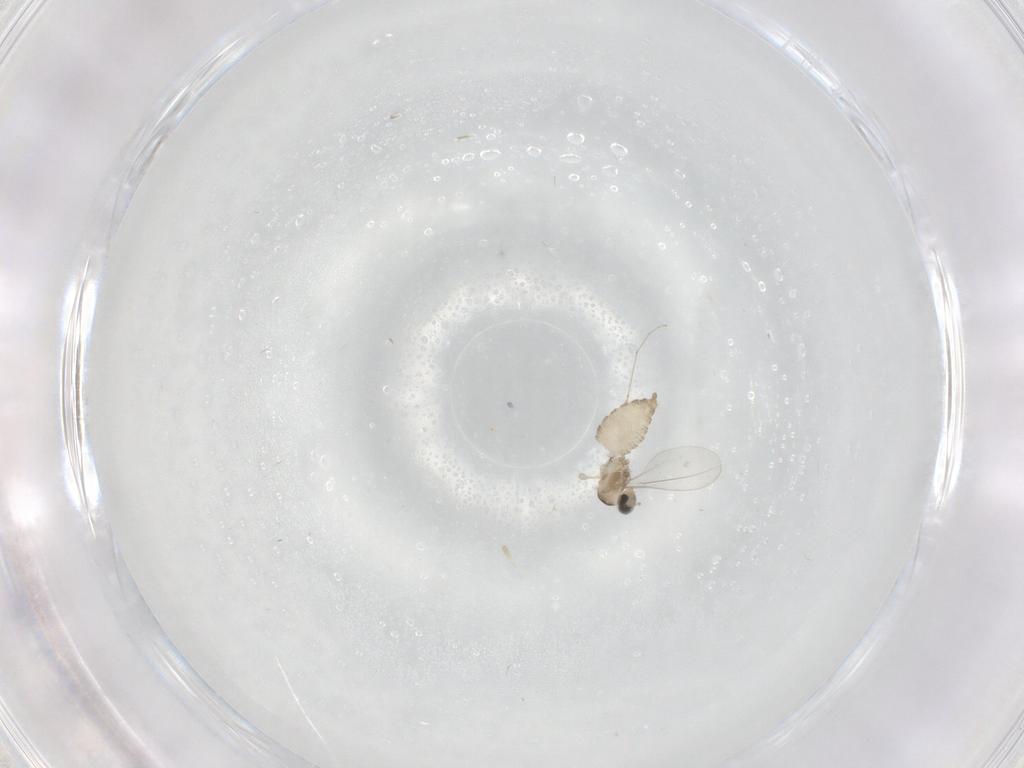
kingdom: Animalia
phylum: Arthropoda
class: Insecta
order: Diptera
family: Cecidomyiidae
